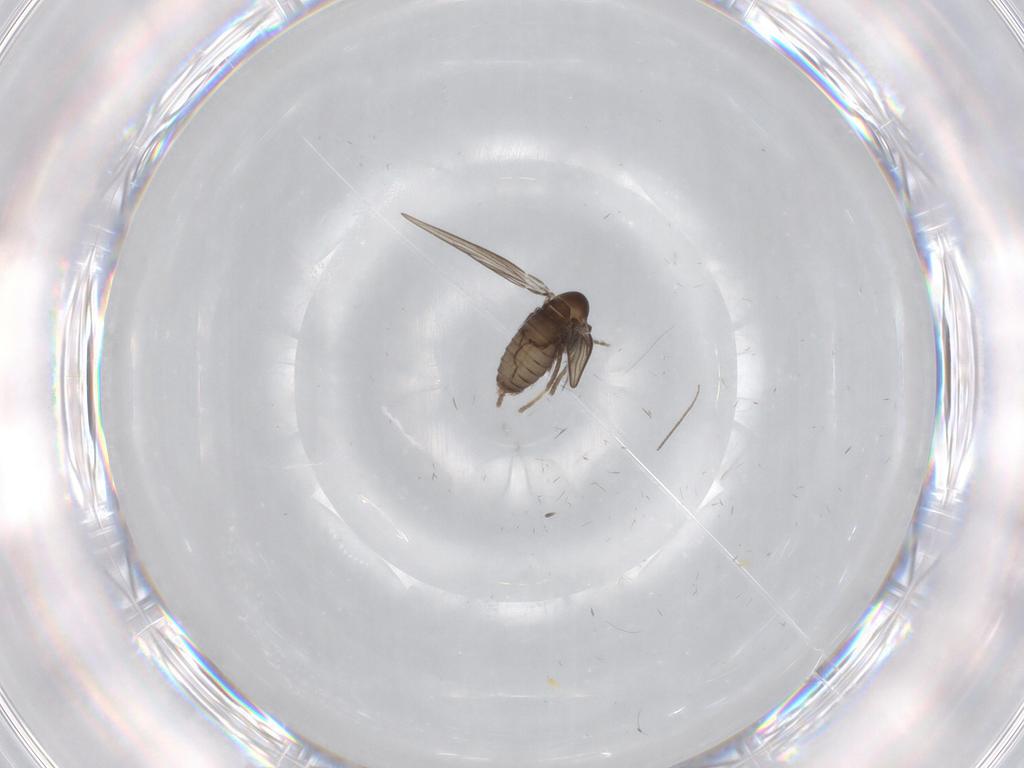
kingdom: Animalia
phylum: Arthropoda
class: Insecta
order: Diptera
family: Psychodidae
